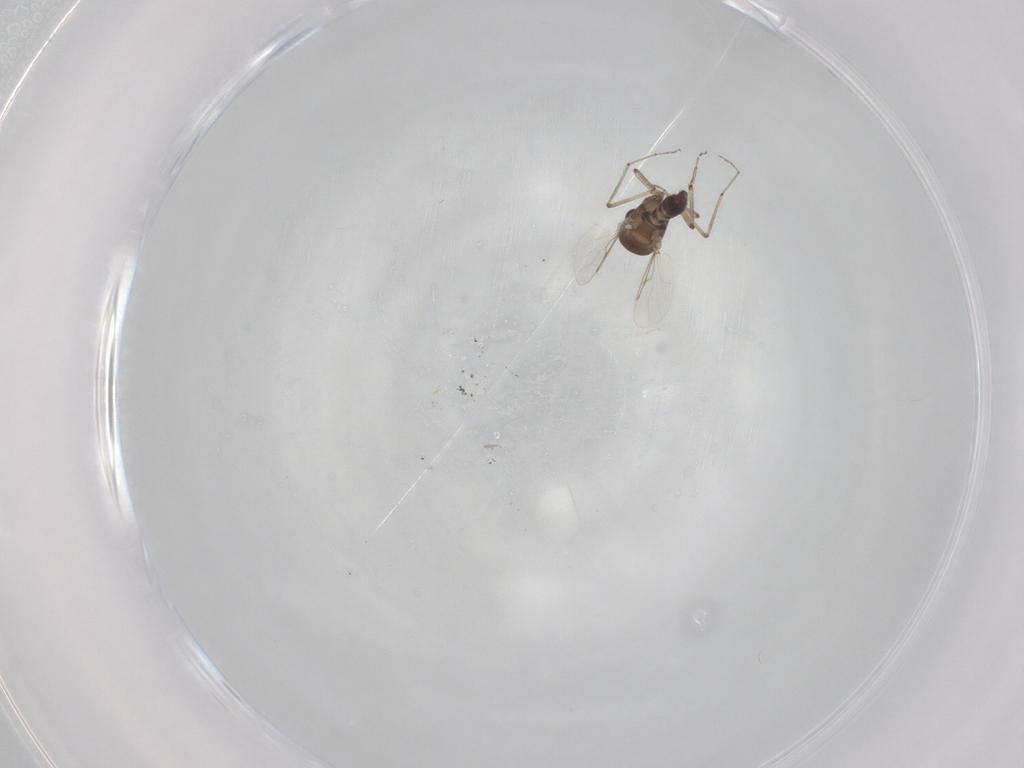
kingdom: Animalia
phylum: Arthropoda
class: Insecta
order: Diptera
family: Ceratopogonidae
